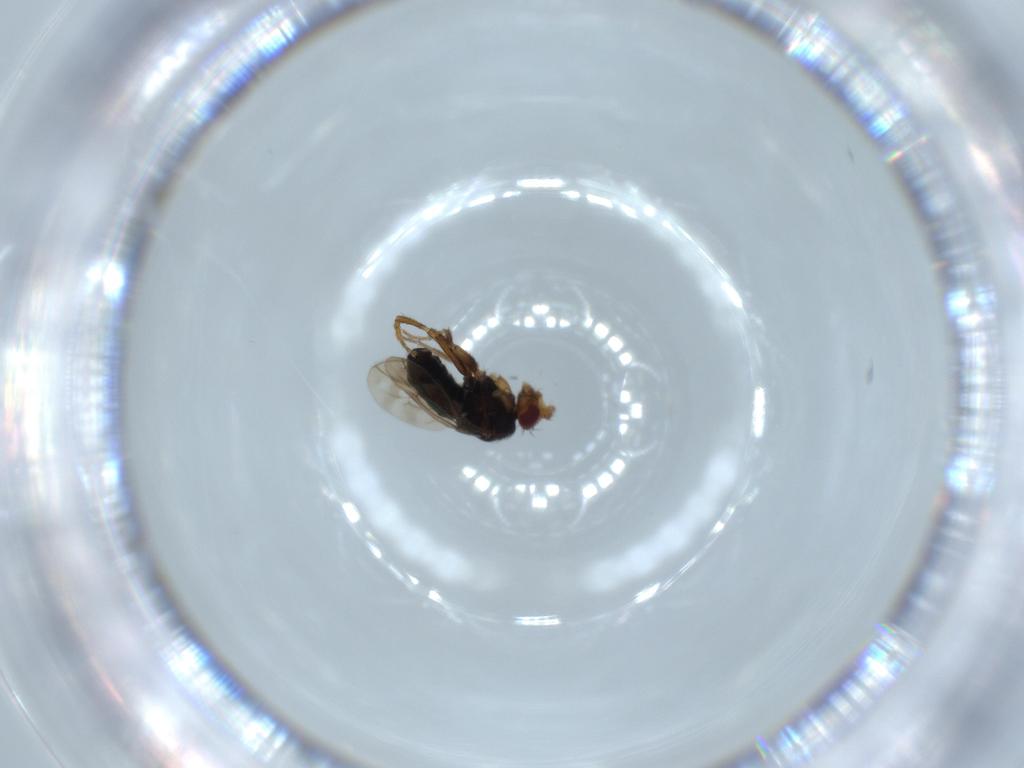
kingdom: Animalia
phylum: Arthropoda
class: Insecta
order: Diptera
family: Sphaeroceridae
